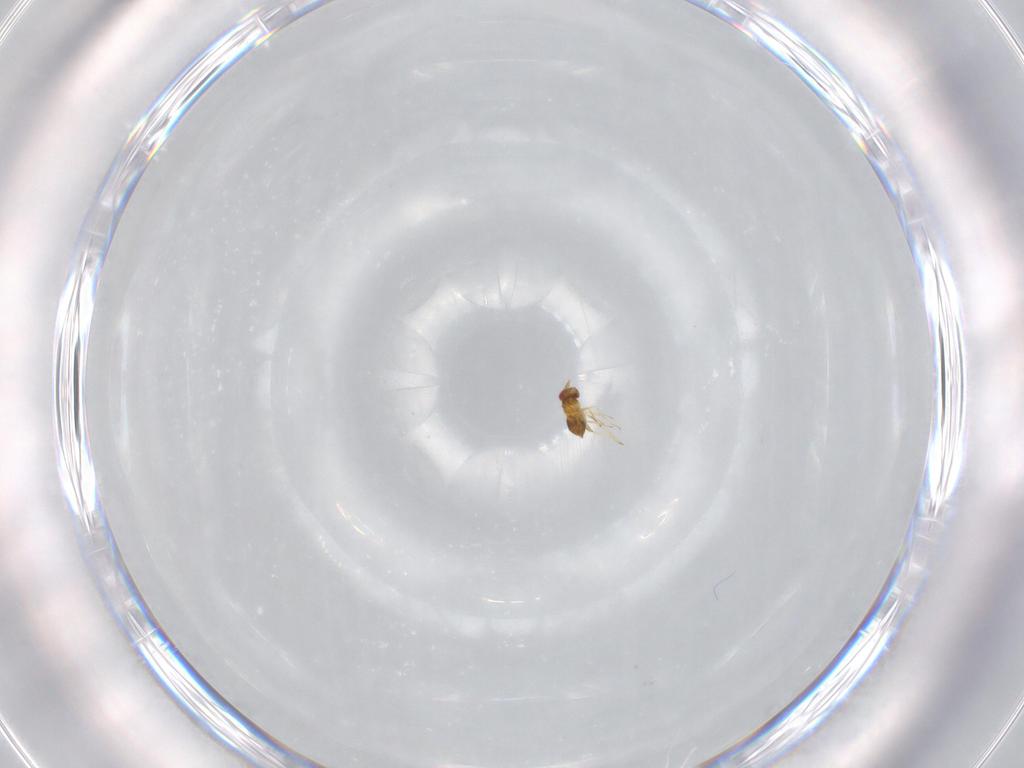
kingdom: Animalia
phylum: Arthropoda
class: Insecta
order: Hymenoptera
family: Trichogrammatidae
